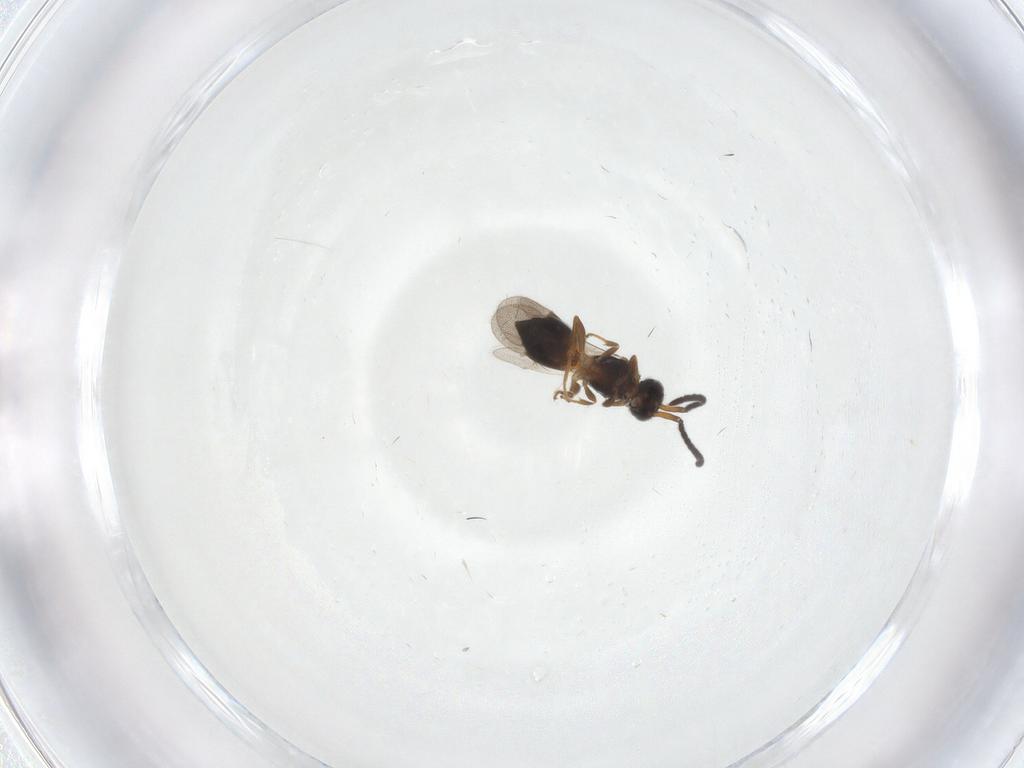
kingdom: Animalia
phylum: Arthropoda
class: Insecta
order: Hymenoptera
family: Megaspilidae
